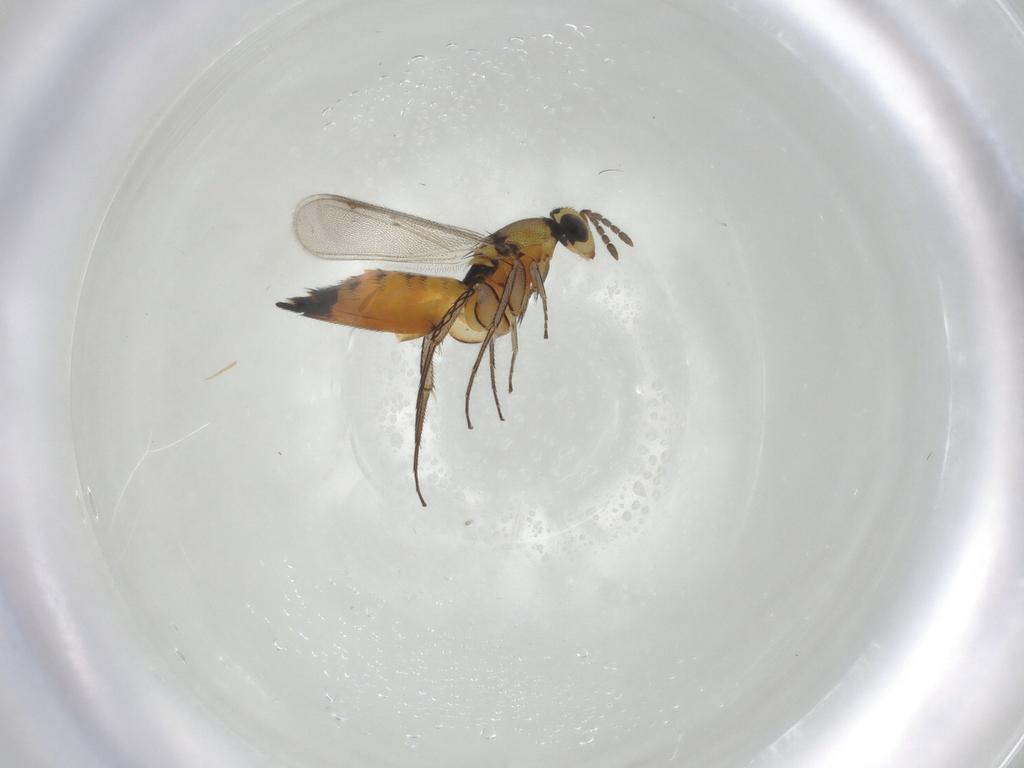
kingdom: Animalia
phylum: Arthropoda
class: Insecta
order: Hymenoptera
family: Eulophidae
